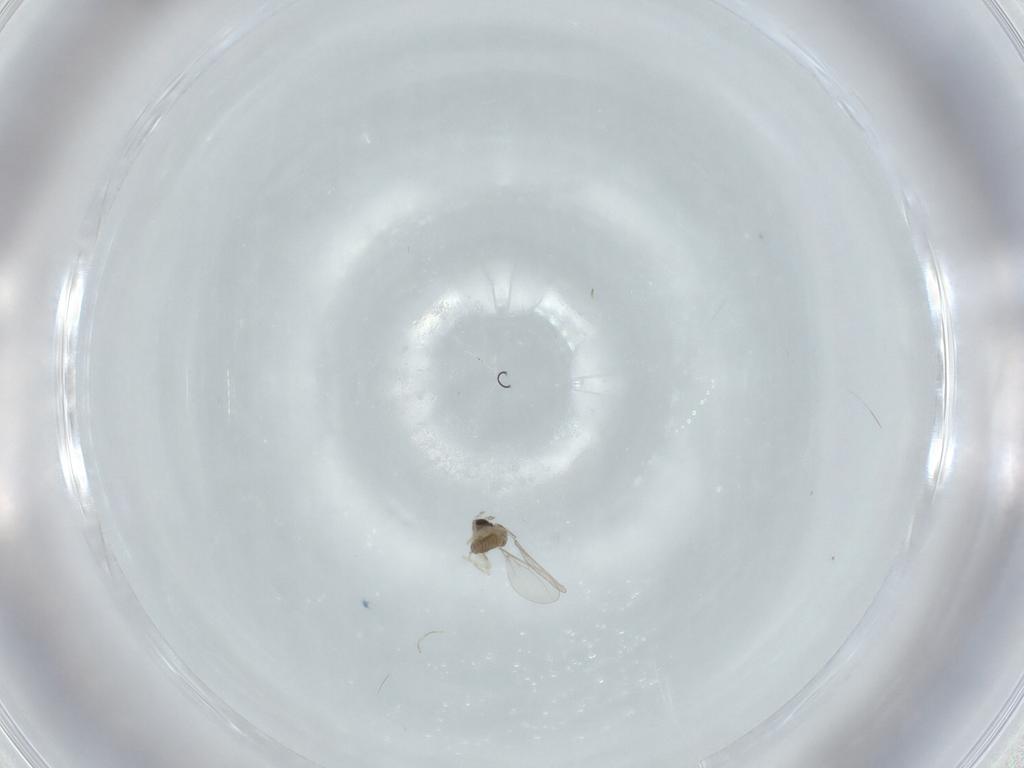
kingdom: Animalia
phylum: Arthropoda
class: Insecta
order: Diptera
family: Cecidomyiidae
